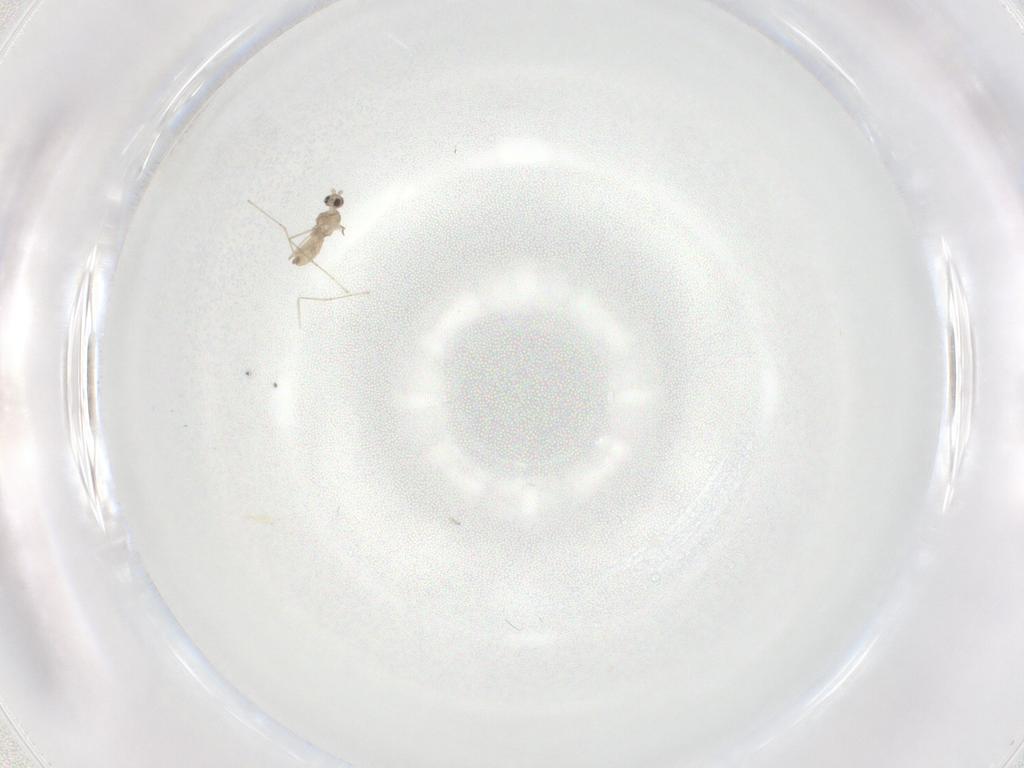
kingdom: Animalia
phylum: Arthropoda
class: Insecta
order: Diptera
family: Cecidomyiidae
